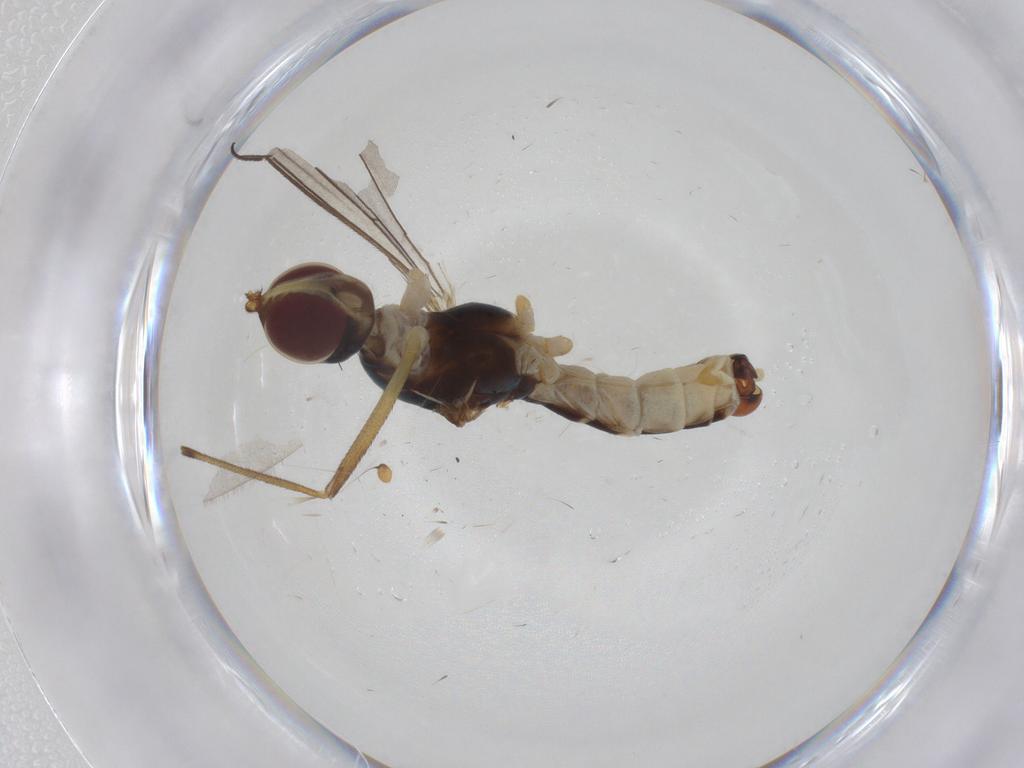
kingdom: Animalia
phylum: Arthropoda
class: Insecta
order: Diptera
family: Micropezidae
